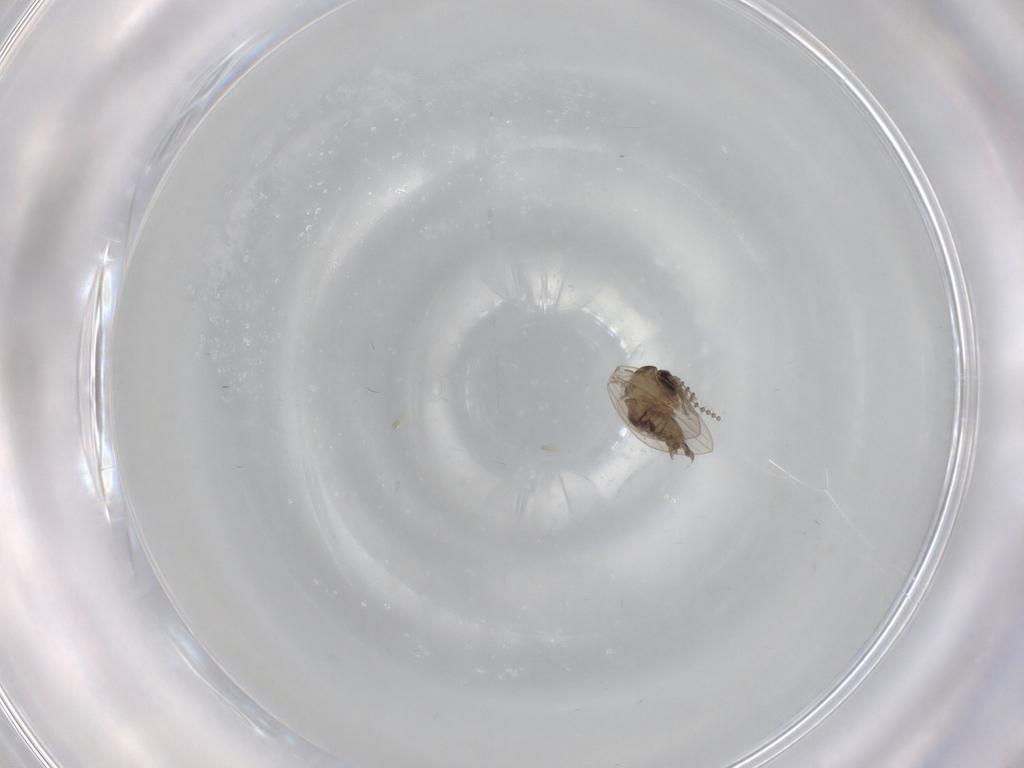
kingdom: Animalia
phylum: Arthropoda
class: Insecta
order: Diptera
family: Psychodidae
